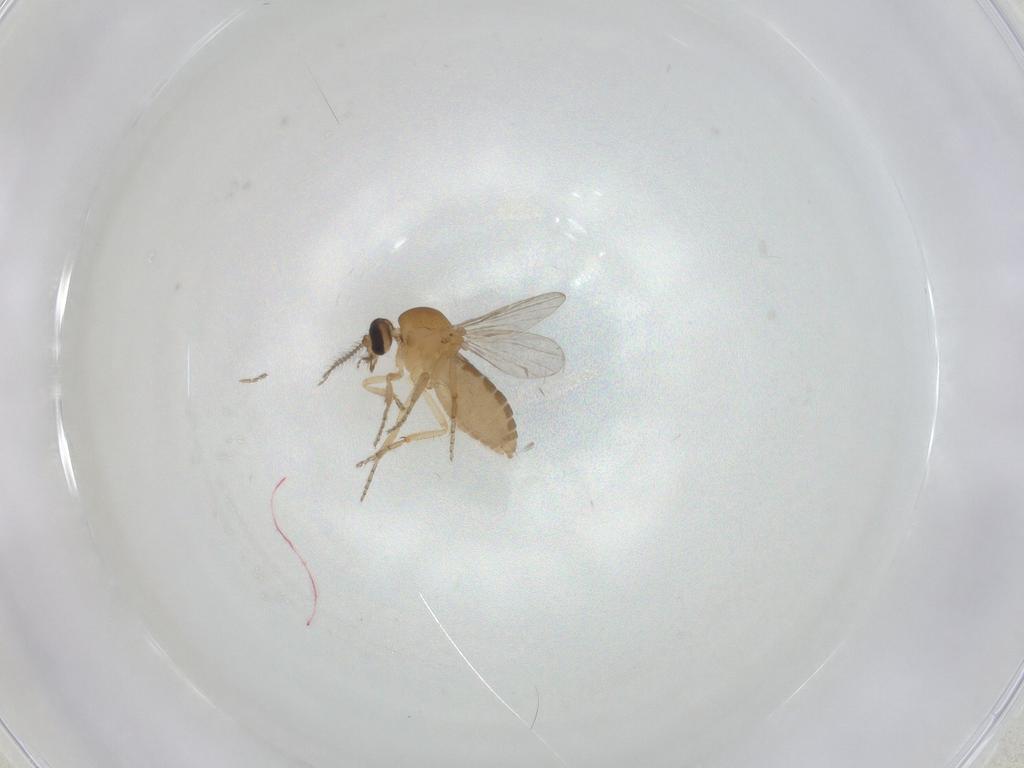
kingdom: Animalia
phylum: Arthropoda
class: Insecta
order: Diptera
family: Ceratopogonidae
